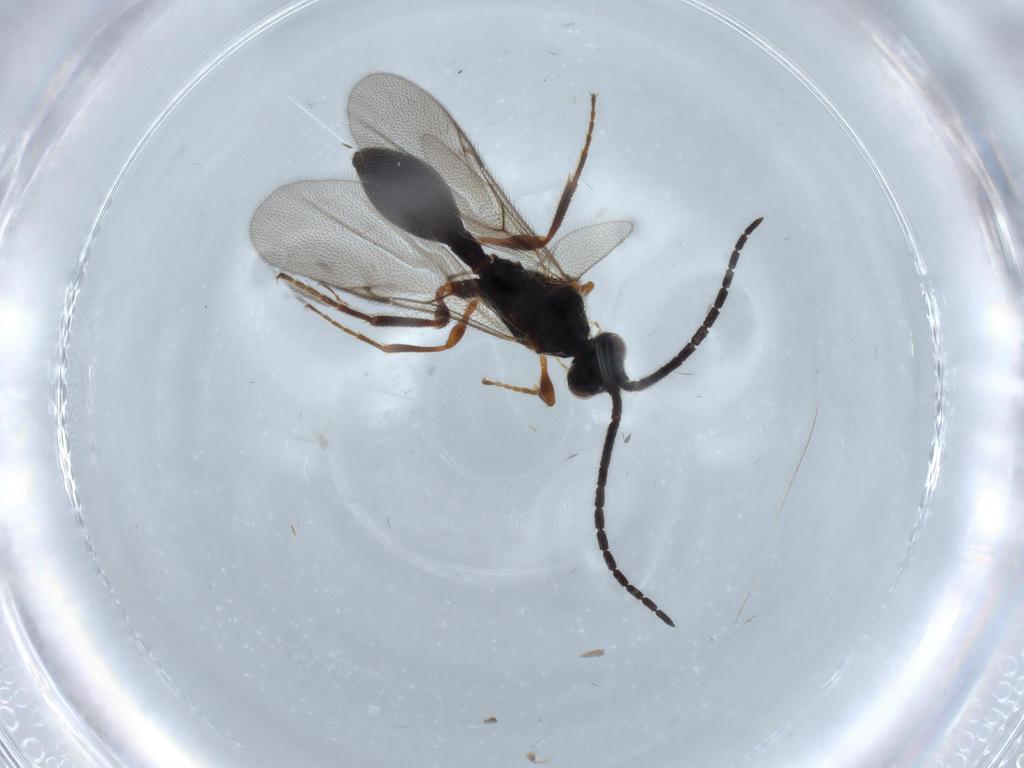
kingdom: Animalia
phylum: Arthropoda
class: Insecta
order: Hymenoptera
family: Diapriidae
